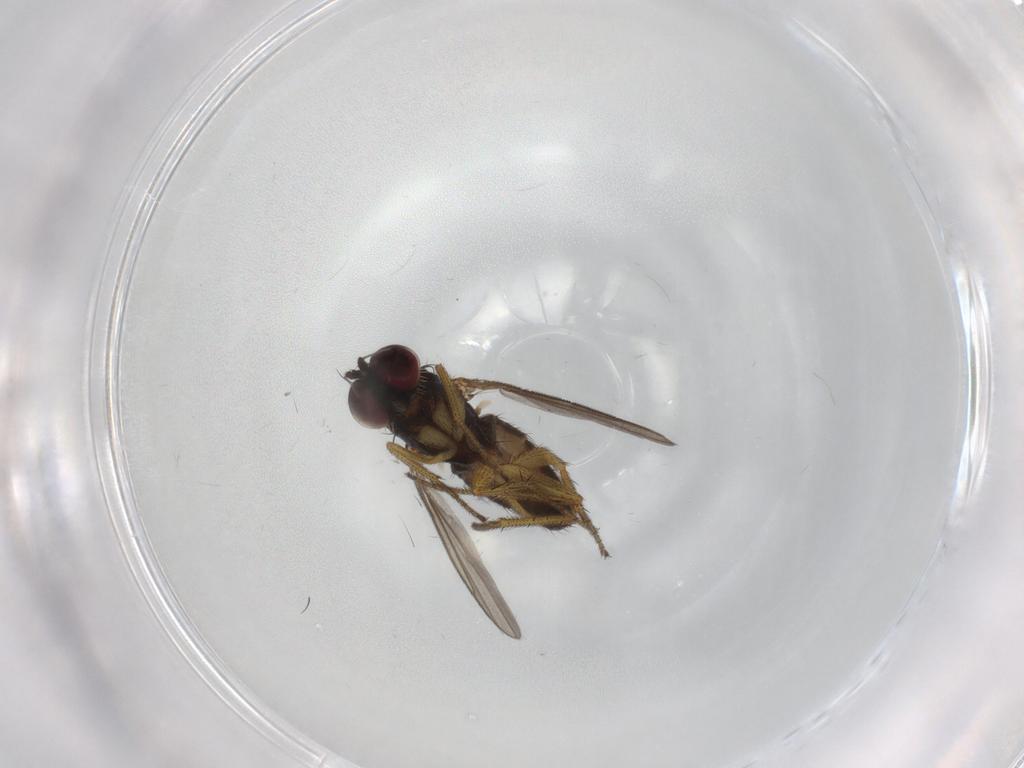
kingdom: Animalia
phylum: Arthropoda
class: Insecta
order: Diptera
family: Dolichopodidae
